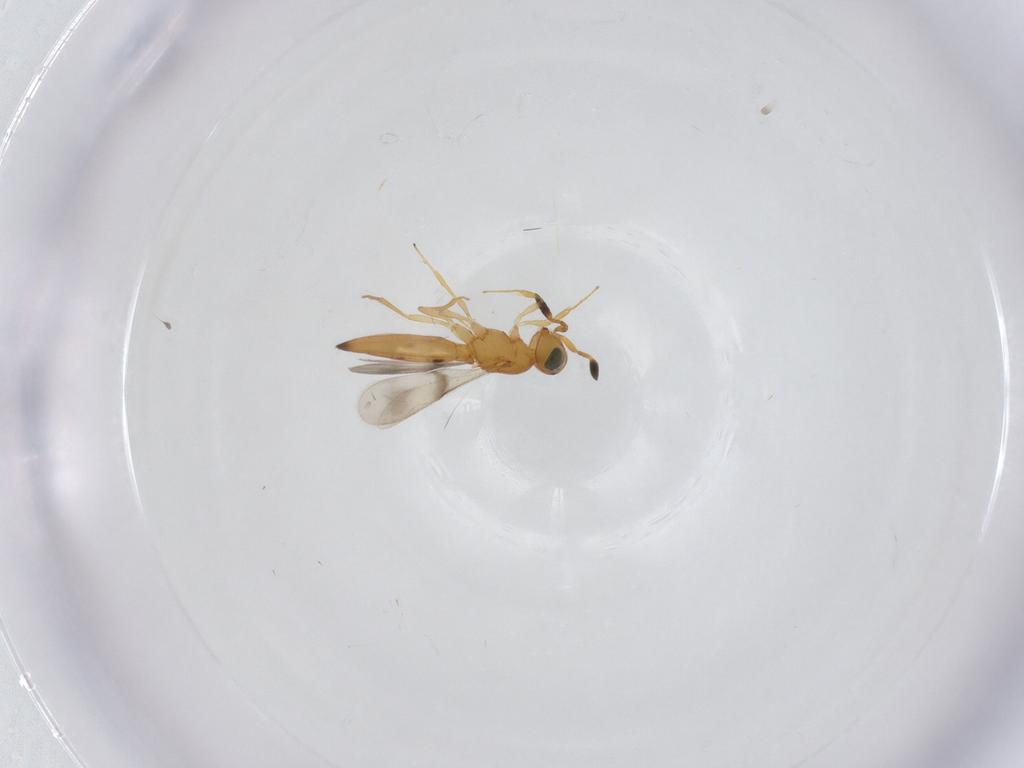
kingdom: Animalia
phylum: Arthropoda
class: Insecta
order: Hymenoptera
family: Scelionidae
